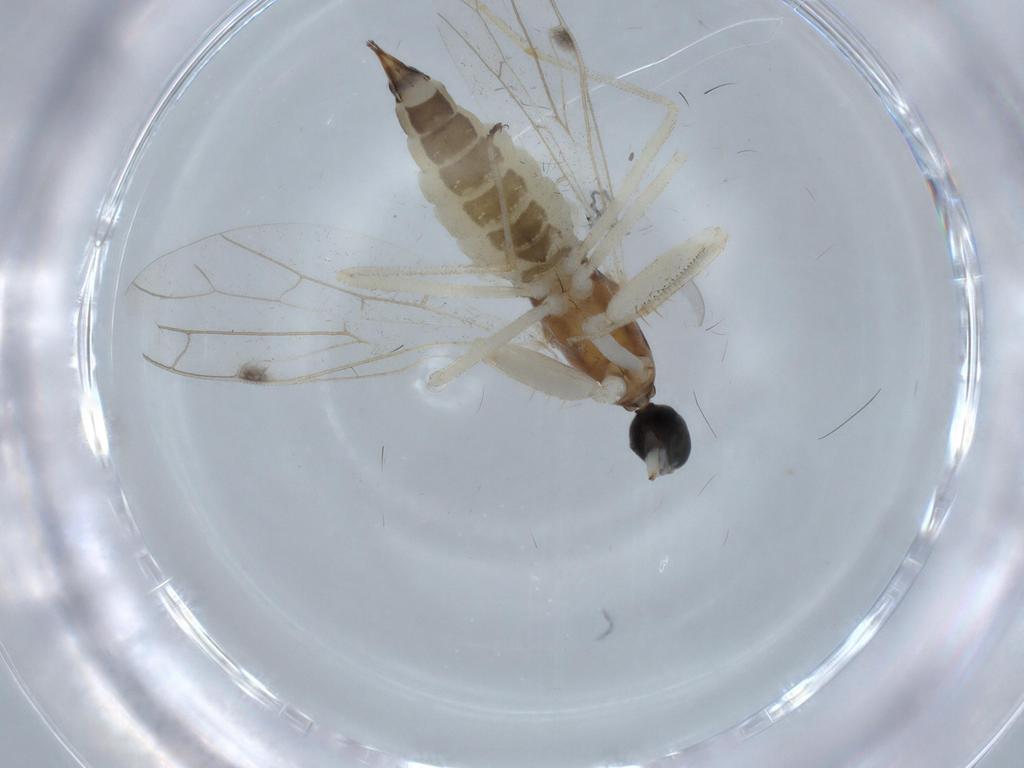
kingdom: Animalia
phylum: Arthropoda
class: Insecta
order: Diptera
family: Empididae
